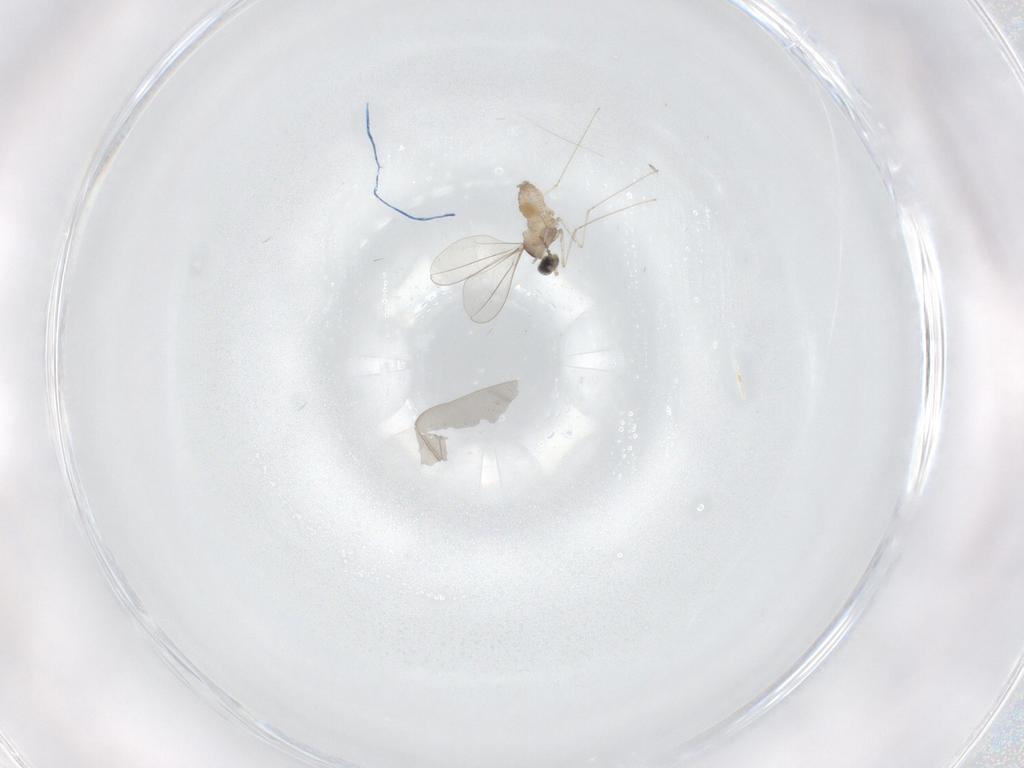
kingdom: Animalia
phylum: Arthropoda
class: Insecta
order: Diptera
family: Cecidomyiidae
